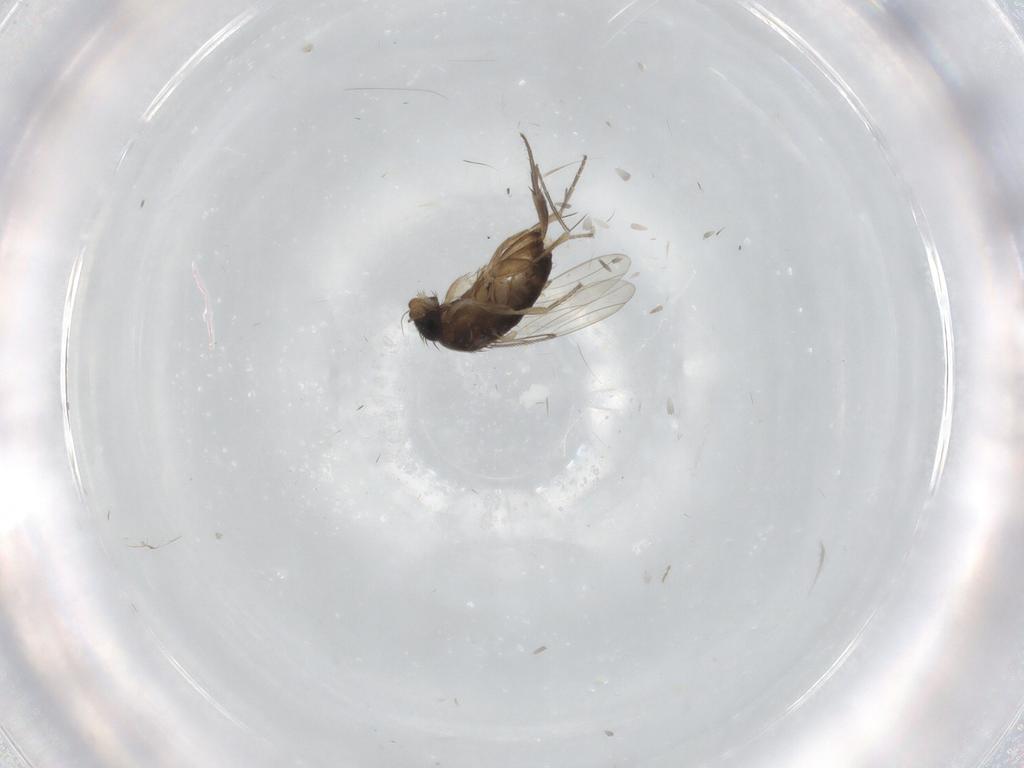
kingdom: Animalia
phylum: Arthropoda
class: Insecta
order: Diptera
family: Phoridae
